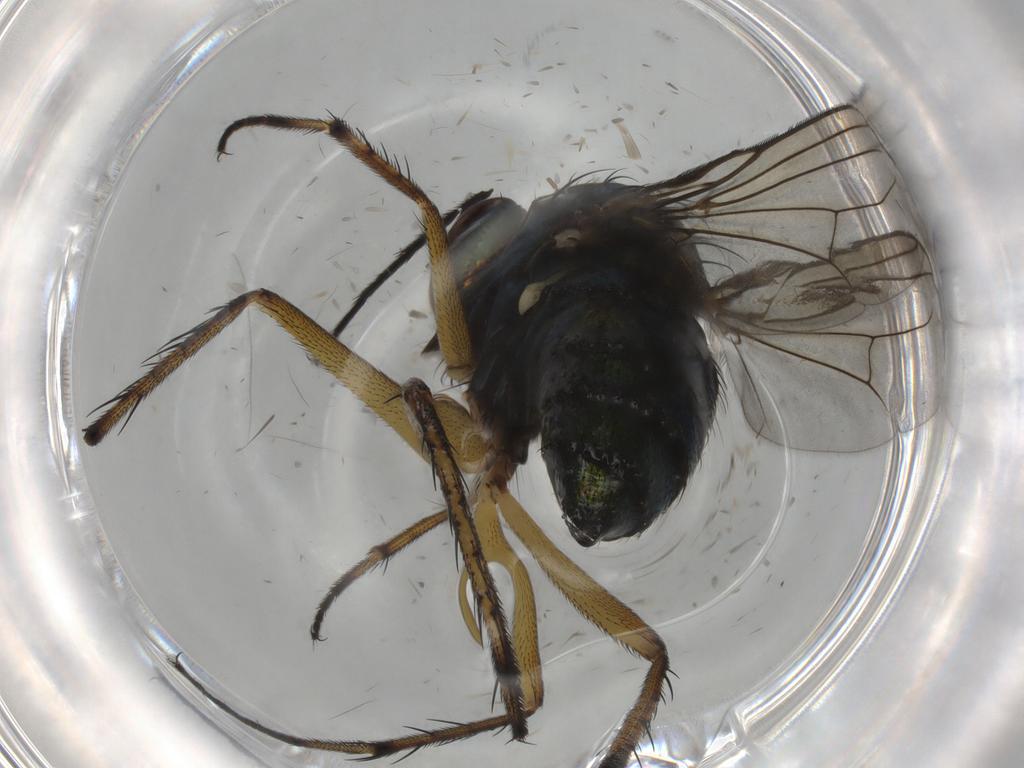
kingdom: Animalia
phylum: Arthropoda
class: Insecta
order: Diptera
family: Dolichopodidae
